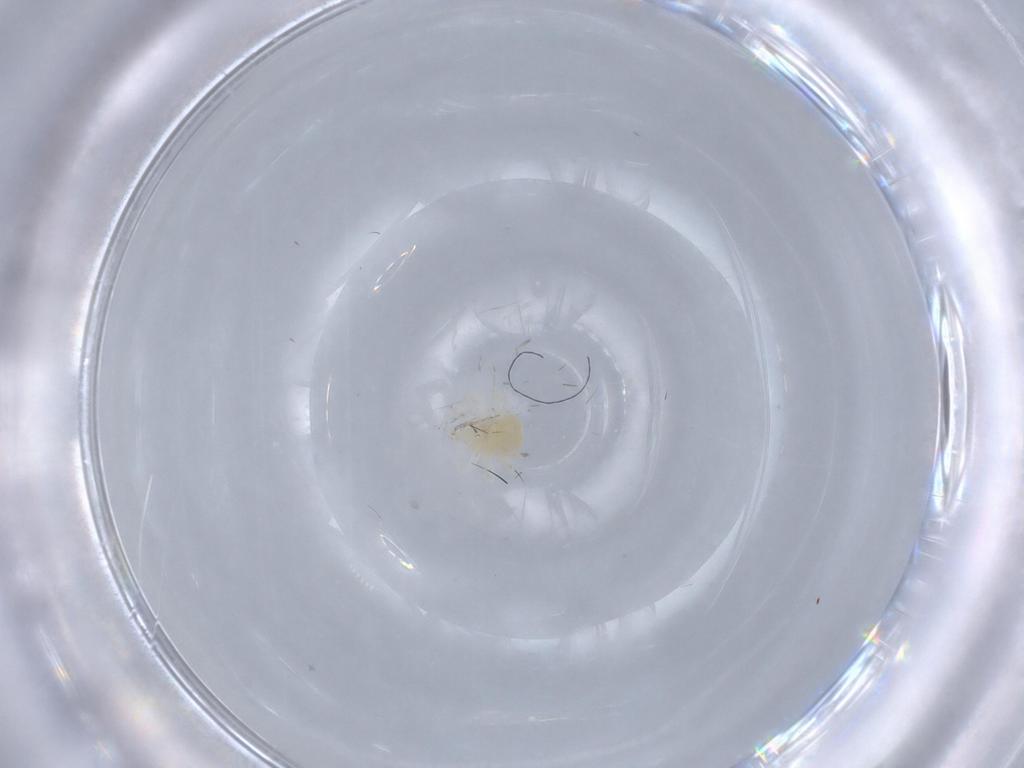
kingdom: Animalia
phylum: Arthropoda
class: Arachnida
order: Trombidiformes
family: Anystidae
